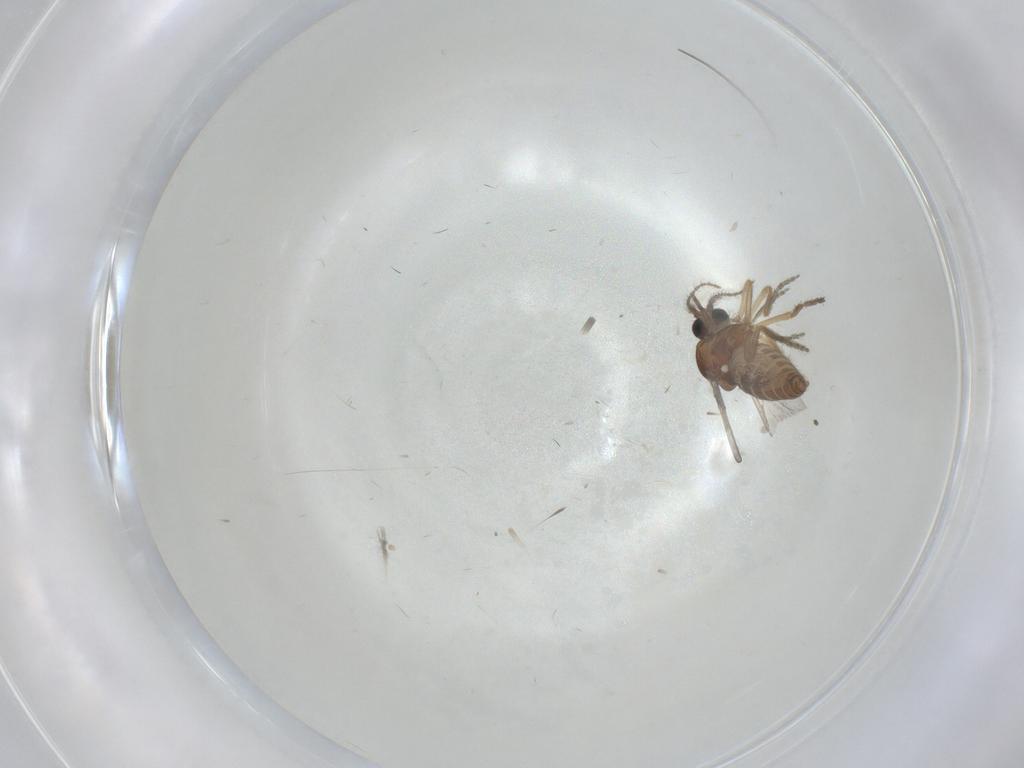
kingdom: Animalia
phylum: Arthropoda
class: Insecta
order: Diptera
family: Ceratopogonidae
